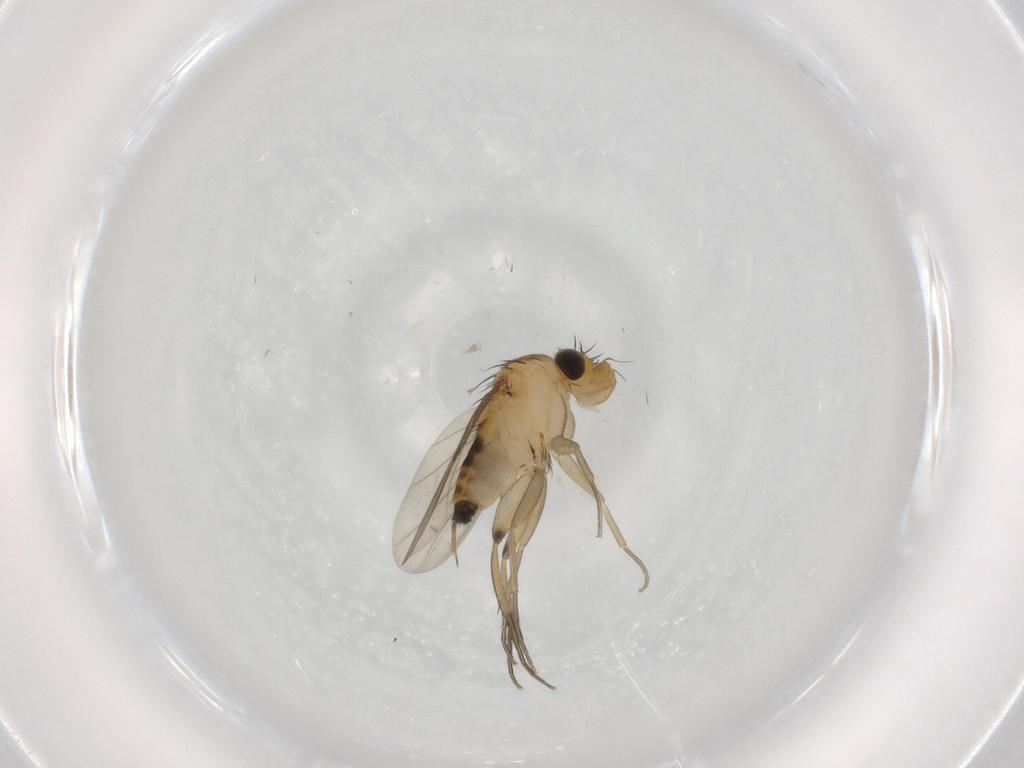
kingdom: Animalia
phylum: Arthropoda
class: Insecta
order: Diptera
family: Phoridae
